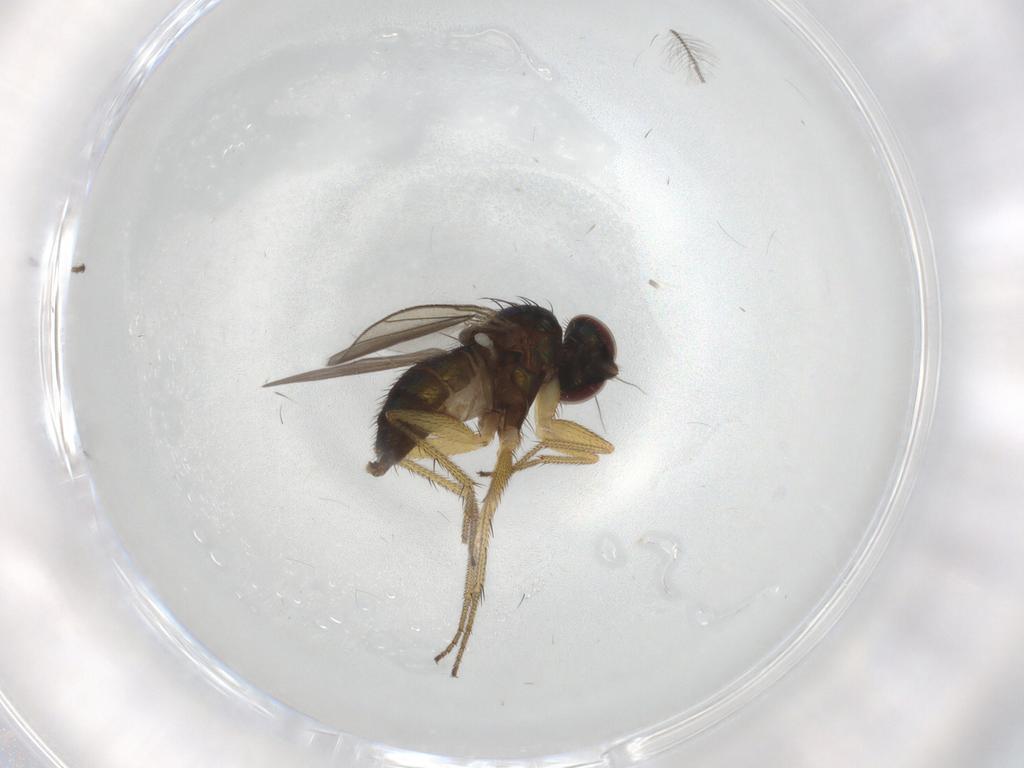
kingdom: Animalia
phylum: Arthropoda
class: Insecta
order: Diptera
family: Dolichopodidae
